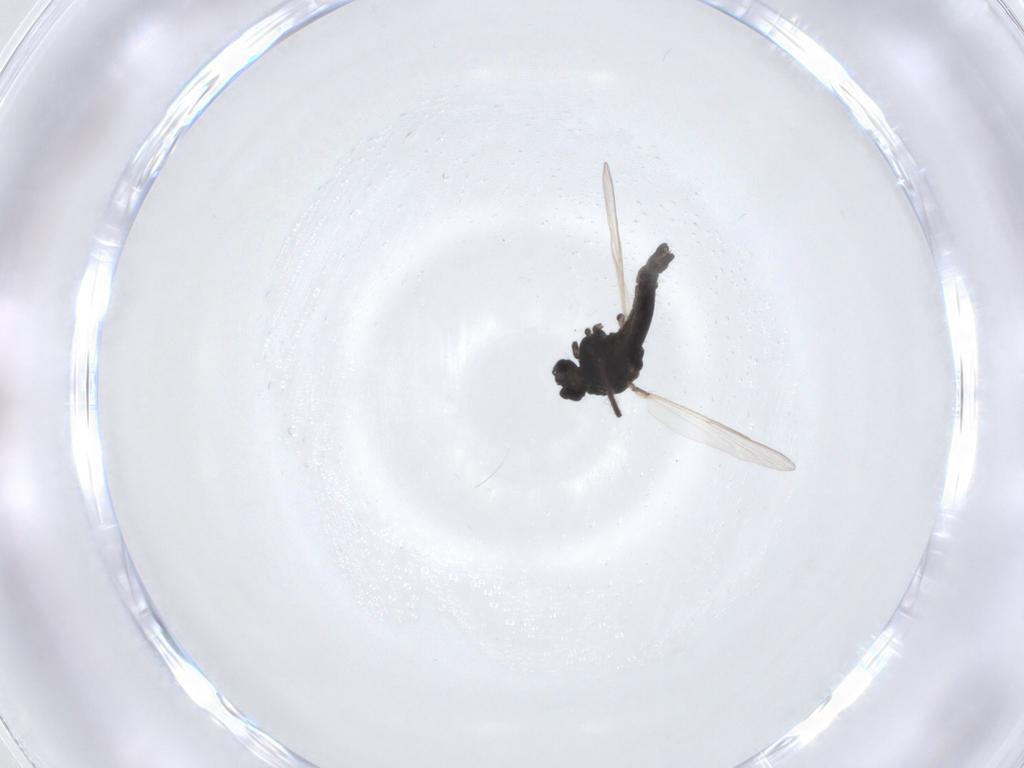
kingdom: Animalia
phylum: Arthropoda
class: Insecta
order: Diptera
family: Chironomidae
